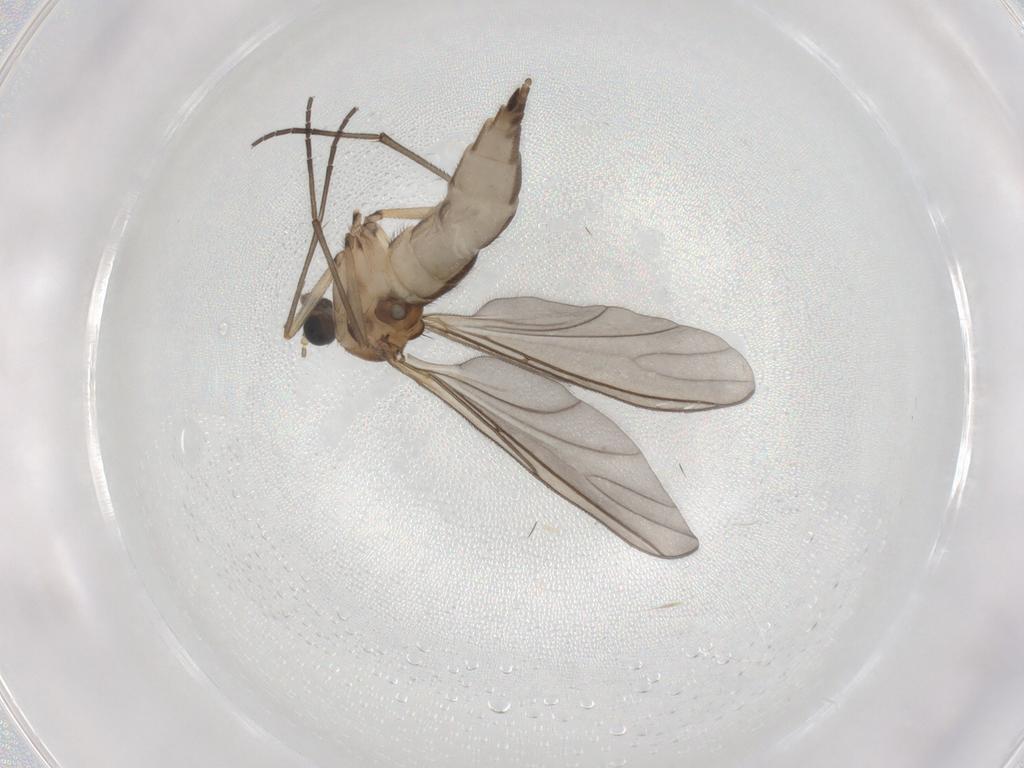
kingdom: Animalia
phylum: Arthropoda
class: Insecta
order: Diptera
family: Sciaridae
